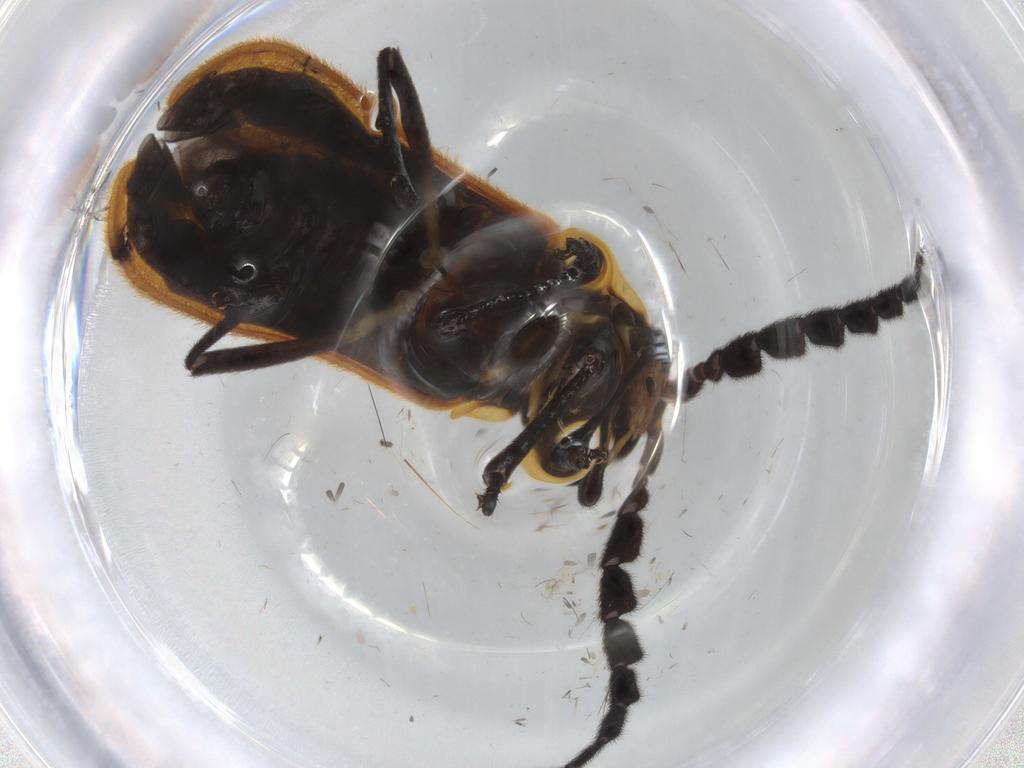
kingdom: Animalia
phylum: Arthropoda
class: Insecta
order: Coleoptera
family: Lycidae
